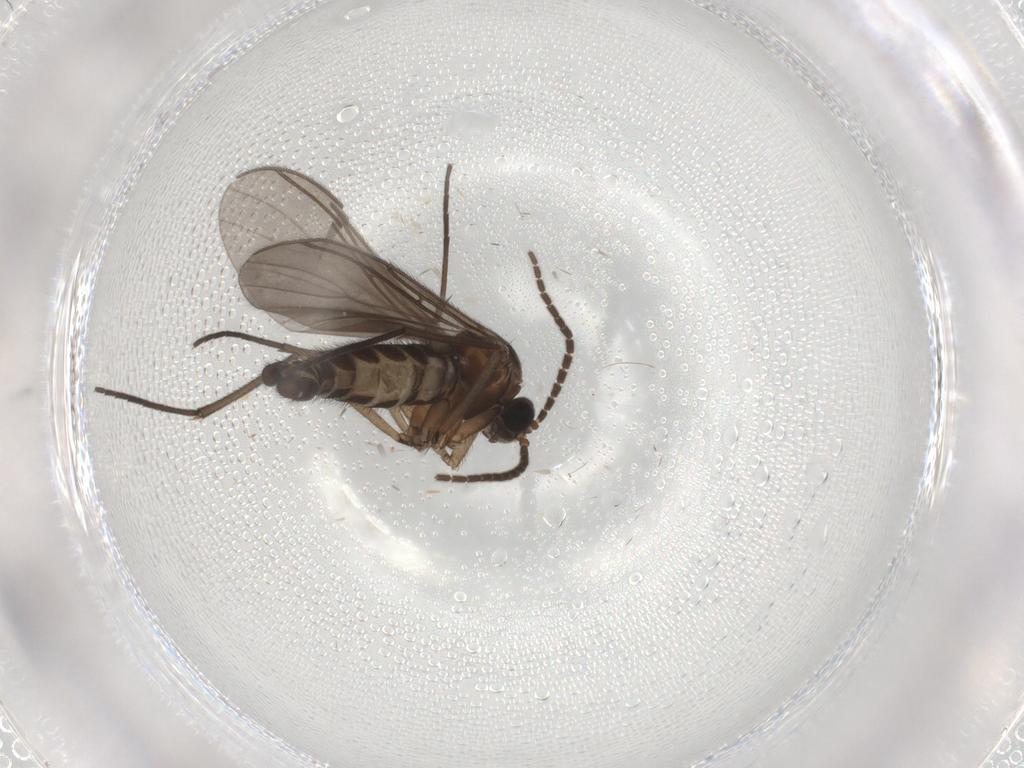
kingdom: Animalia
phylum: Arthropoda
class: Insecta
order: Diptera
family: Sciaridae
